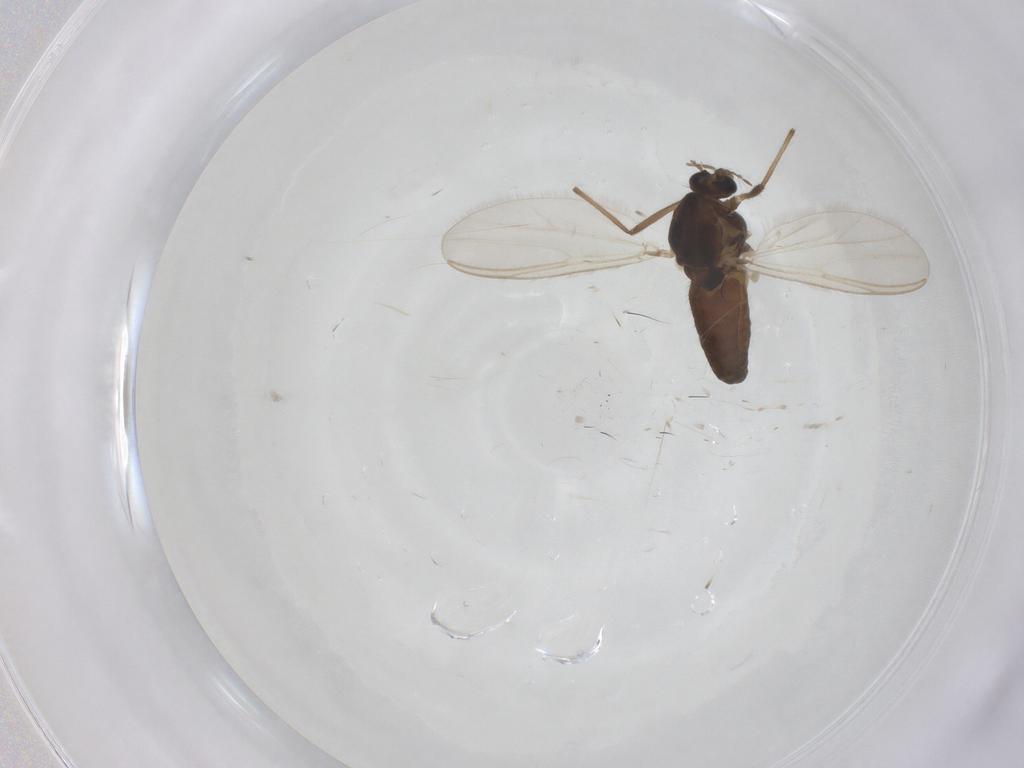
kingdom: Animalia
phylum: Arthropoda
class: Insecta
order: Diptera
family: Chironomidae
